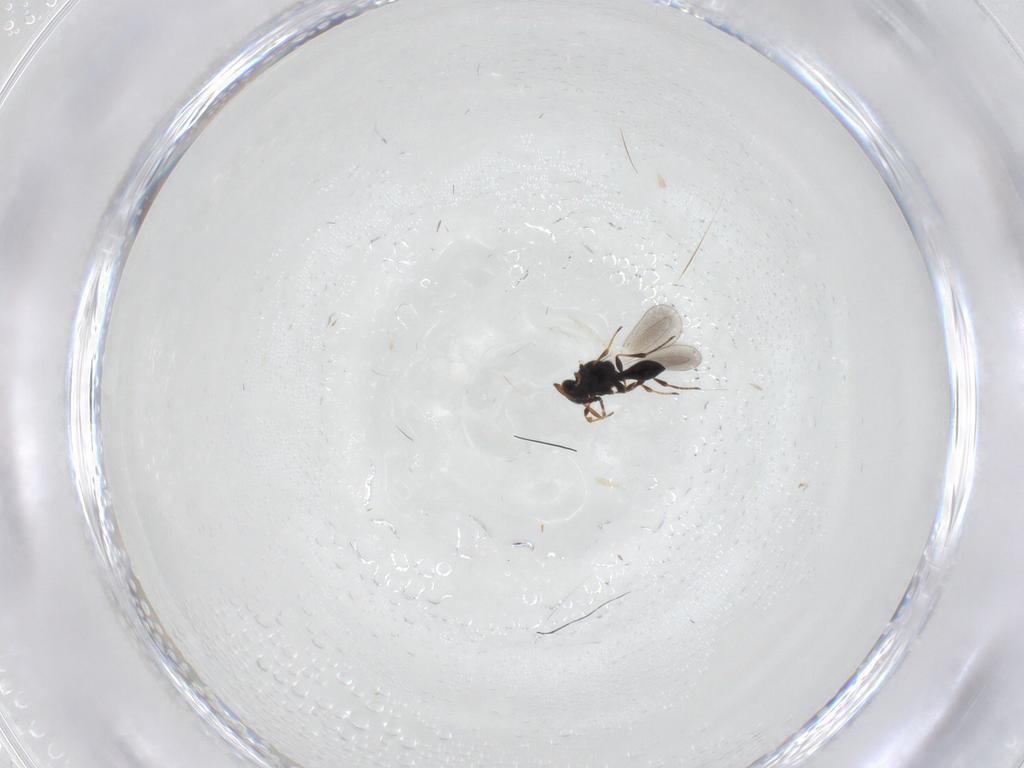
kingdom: Animalia
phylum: Arthropoda
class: Insecta
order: Hymenoptera
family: Platygastridae
